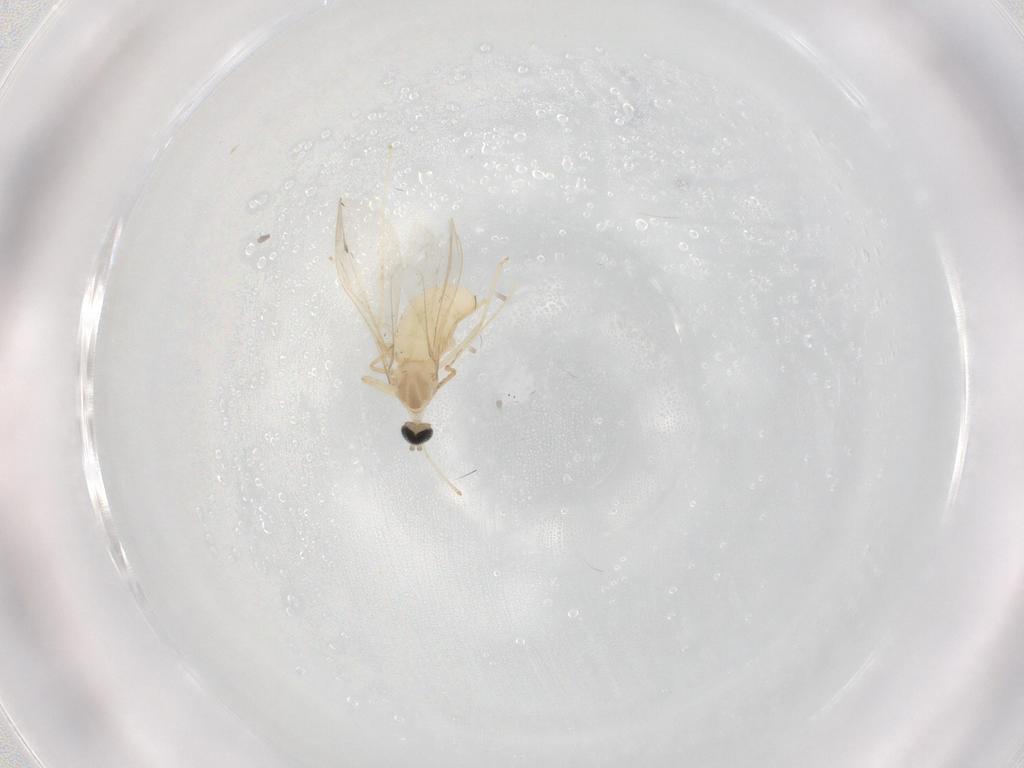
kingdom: Animalia
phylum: Arthropoda
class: Insecta
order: Diptera
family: Cecidomyiidae
